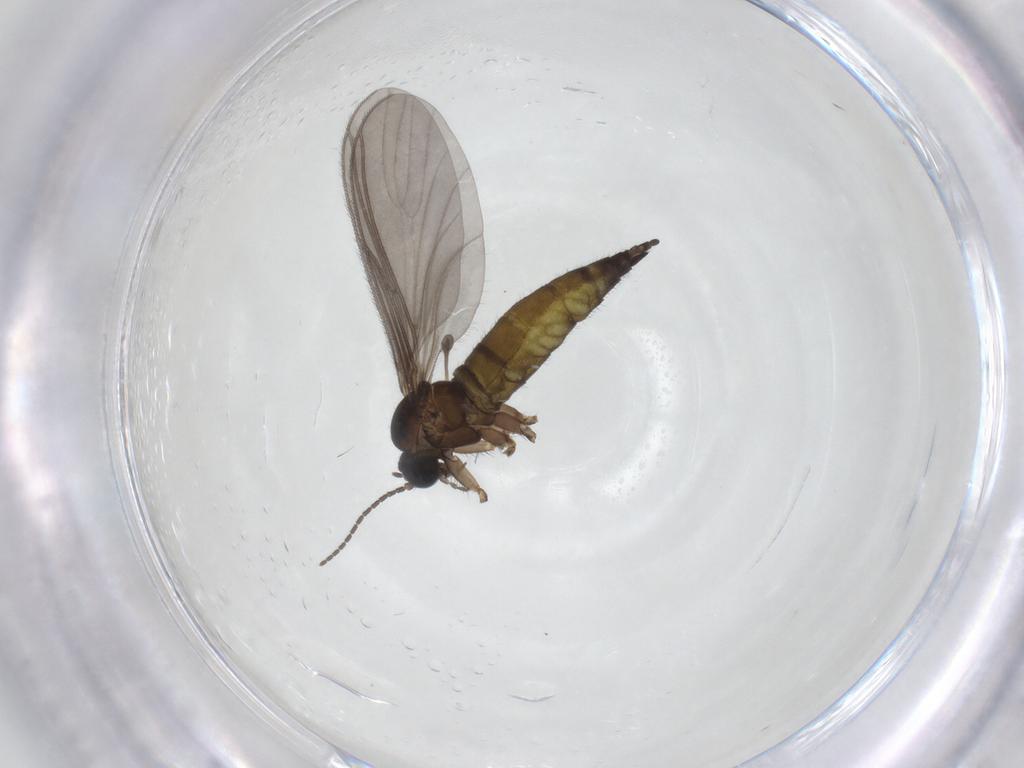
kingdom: Animalia
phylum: Arthropoda
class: Insecta
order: Diptera
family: Sciaridae
